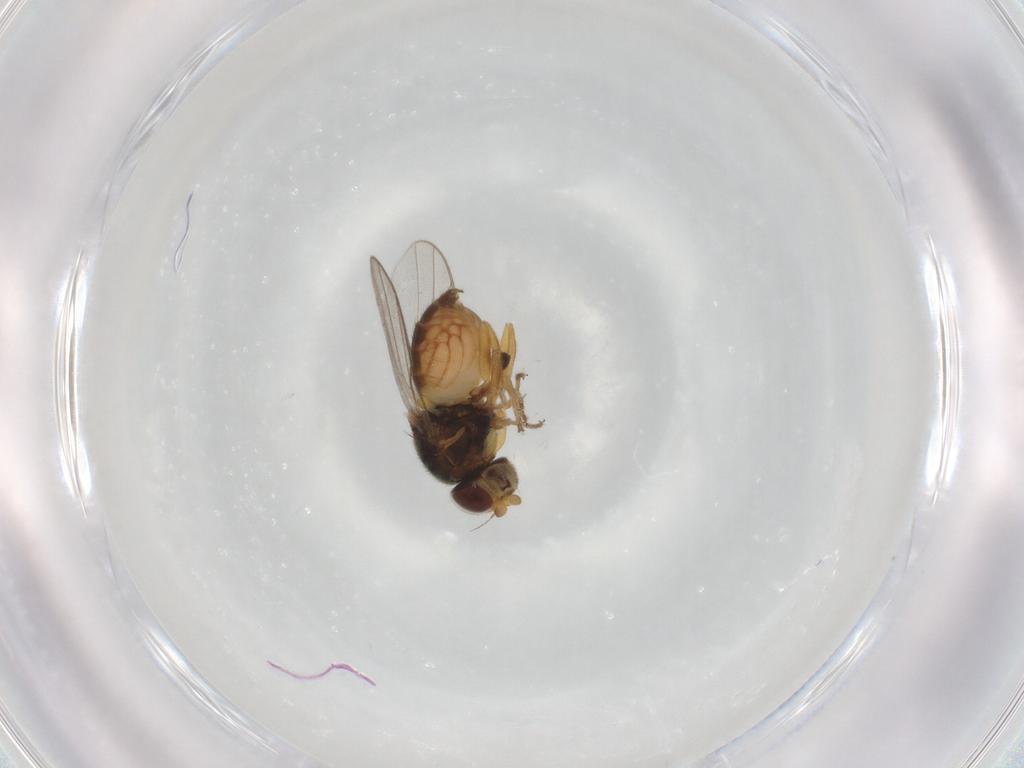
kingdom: Animalia
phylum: Arthropoda
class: Insecta
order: Diptera
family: Chloropidae
